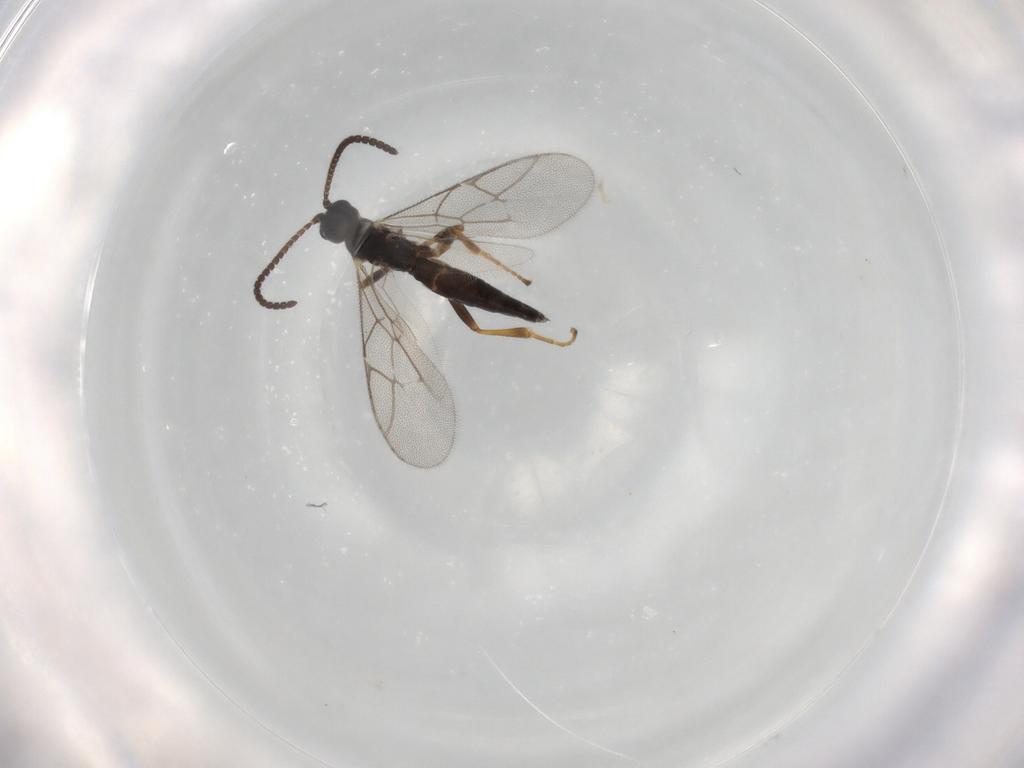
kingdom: Animalia
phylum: Arthropoda
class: Insecta
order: Hymenoptera
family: Ichneumonidae
